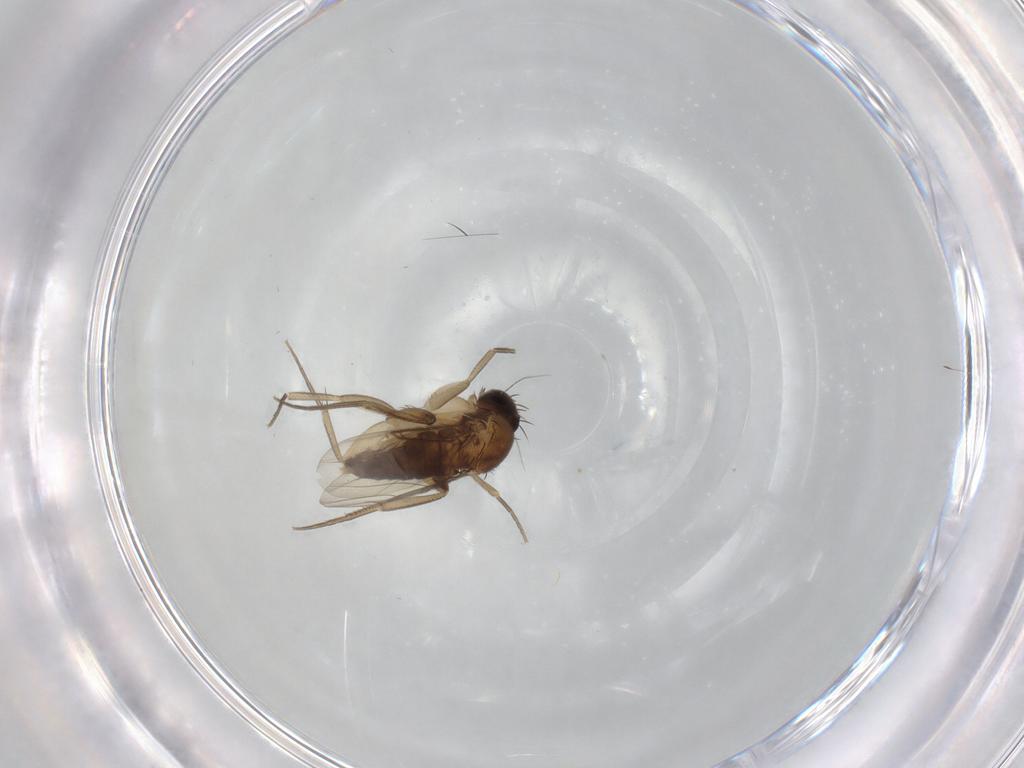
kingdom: Animalia
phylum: Arthropoda
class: Insecta
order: Diptera
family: Phoridae
